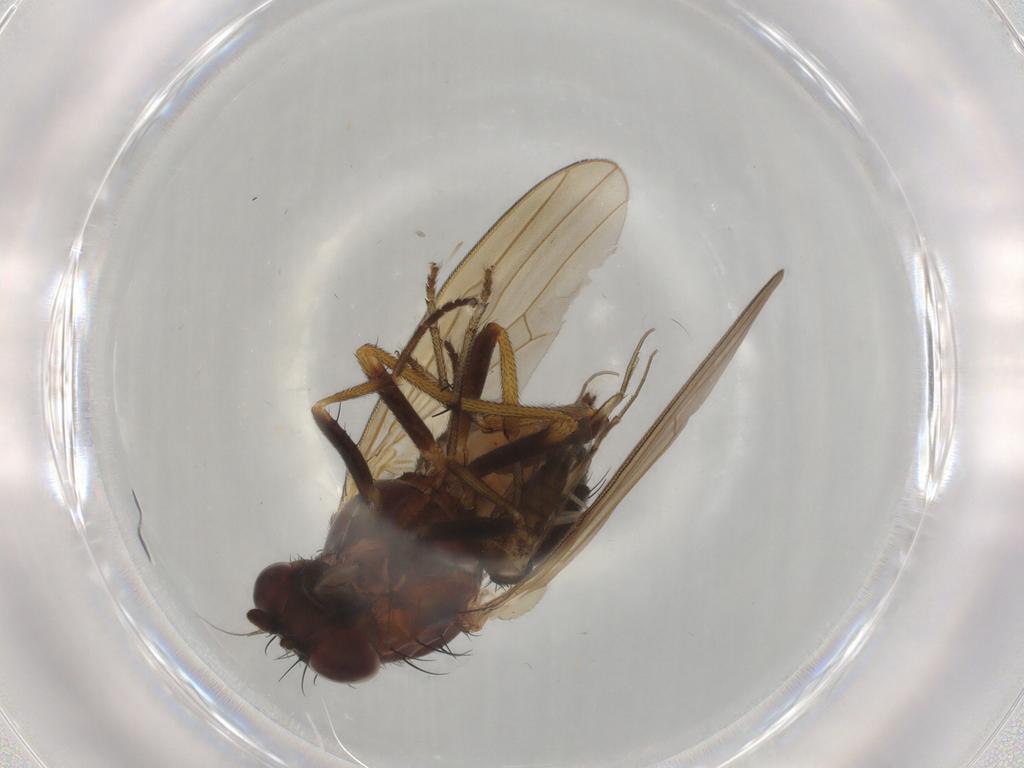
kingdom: Animalia
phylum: Arthropoda
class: Insecta
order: Diptera
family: Lauxaniidae
